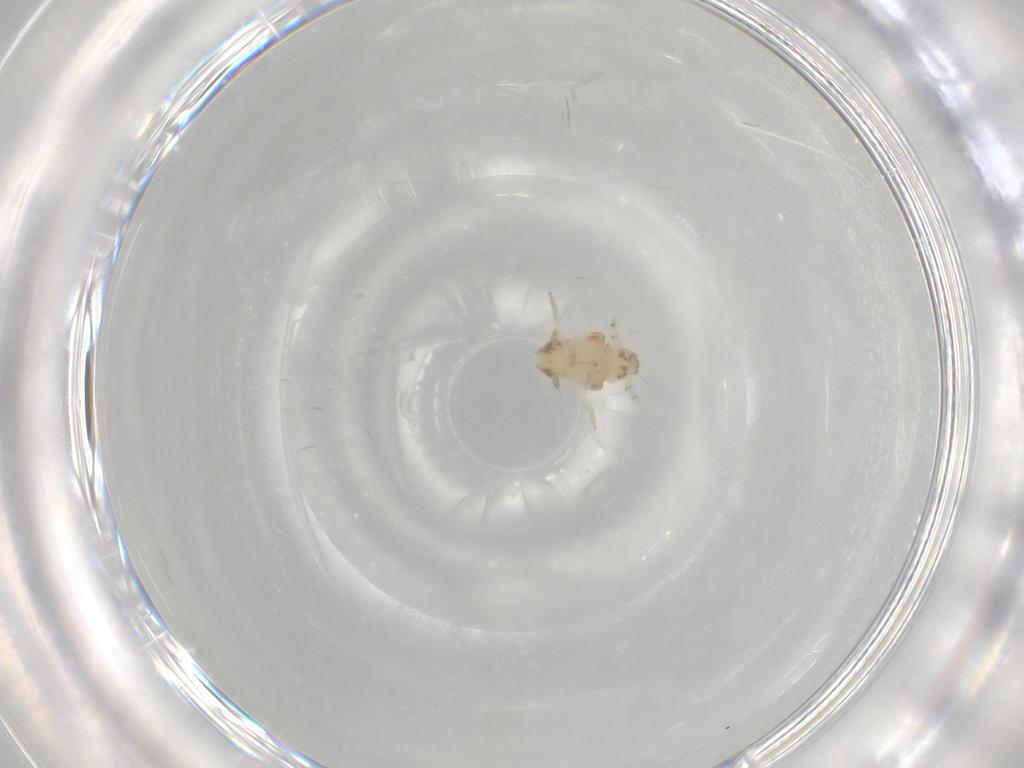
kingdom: Animalia
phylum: Arthropoda
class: Insecta
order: Hemiptera
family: Nogodinidae
